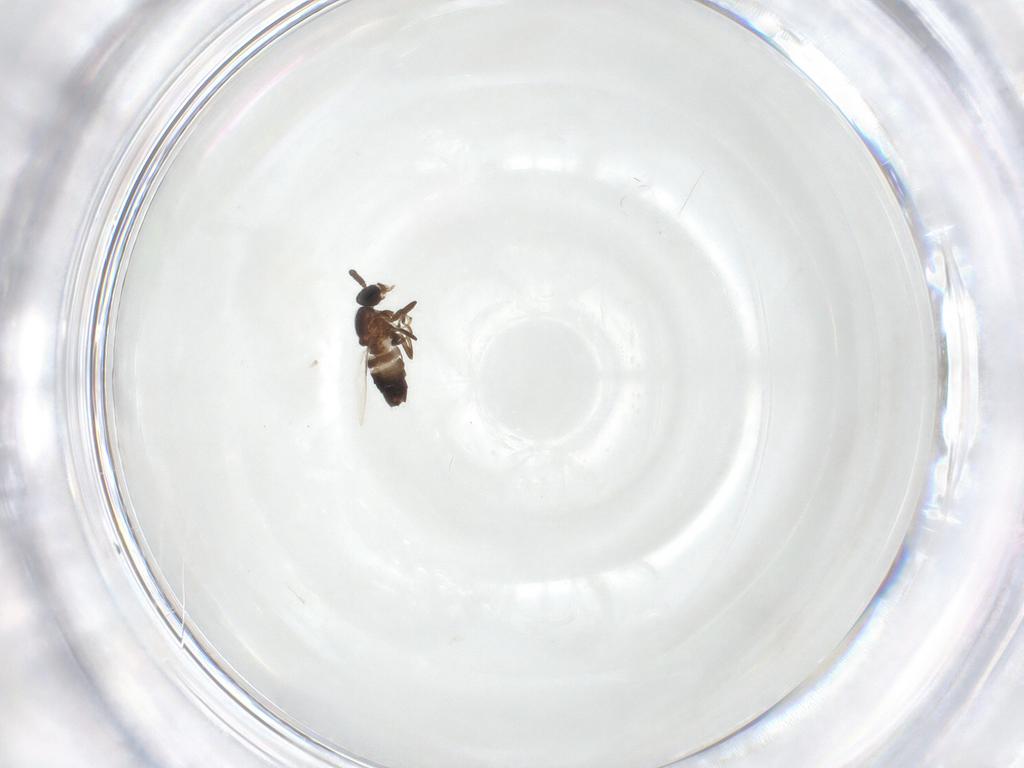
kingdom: Animalia
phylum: Arthropoda
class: Insecta
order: Diptera
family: Scatopsidae
